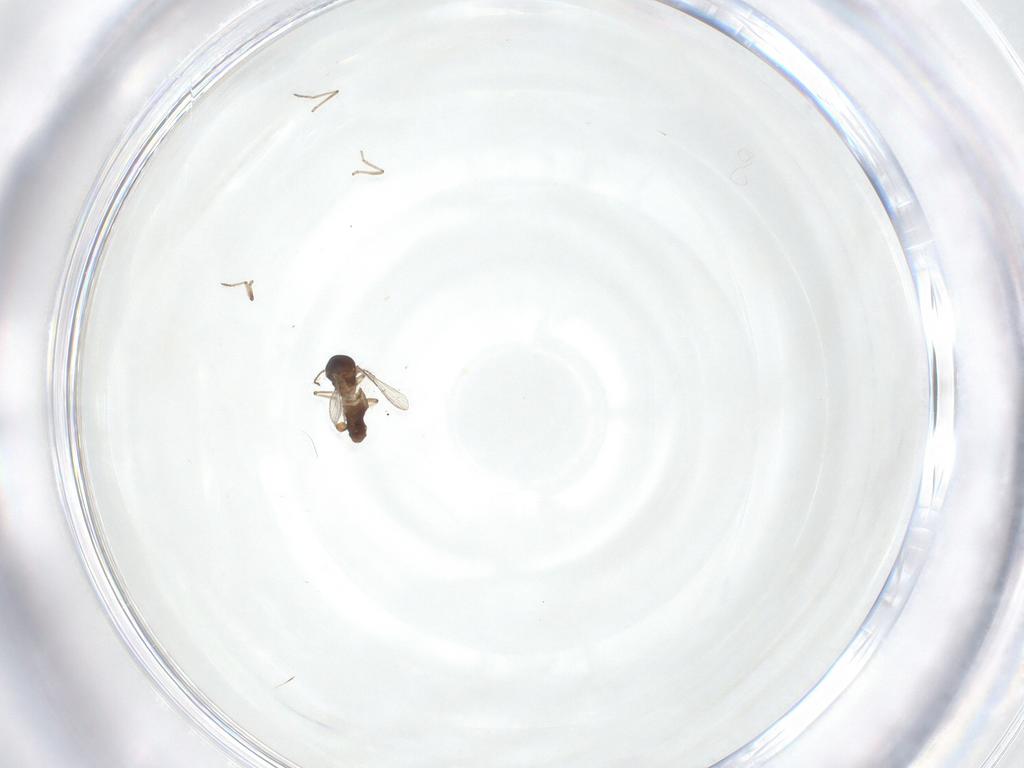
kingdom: Animalia
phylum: Arthropoda
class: Insecta
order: Diptera
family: Ceratopogonidae
